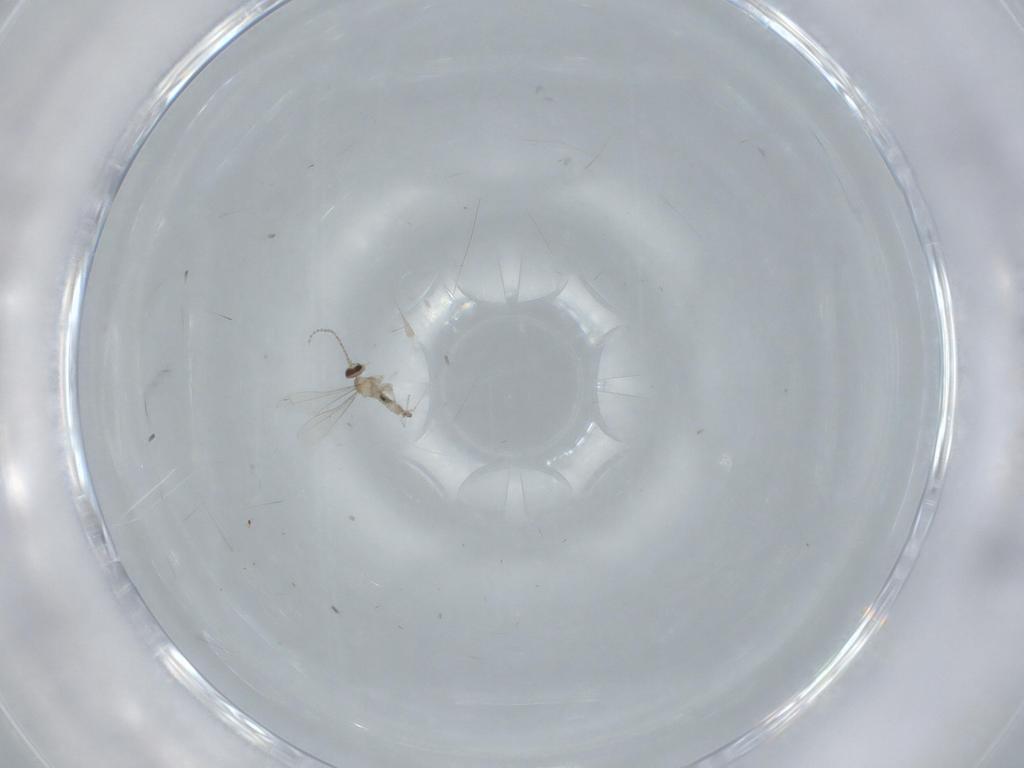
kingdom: Animalia
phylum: Arthropoda
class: Insecta
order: Diptera
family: Cecidomyiidae
